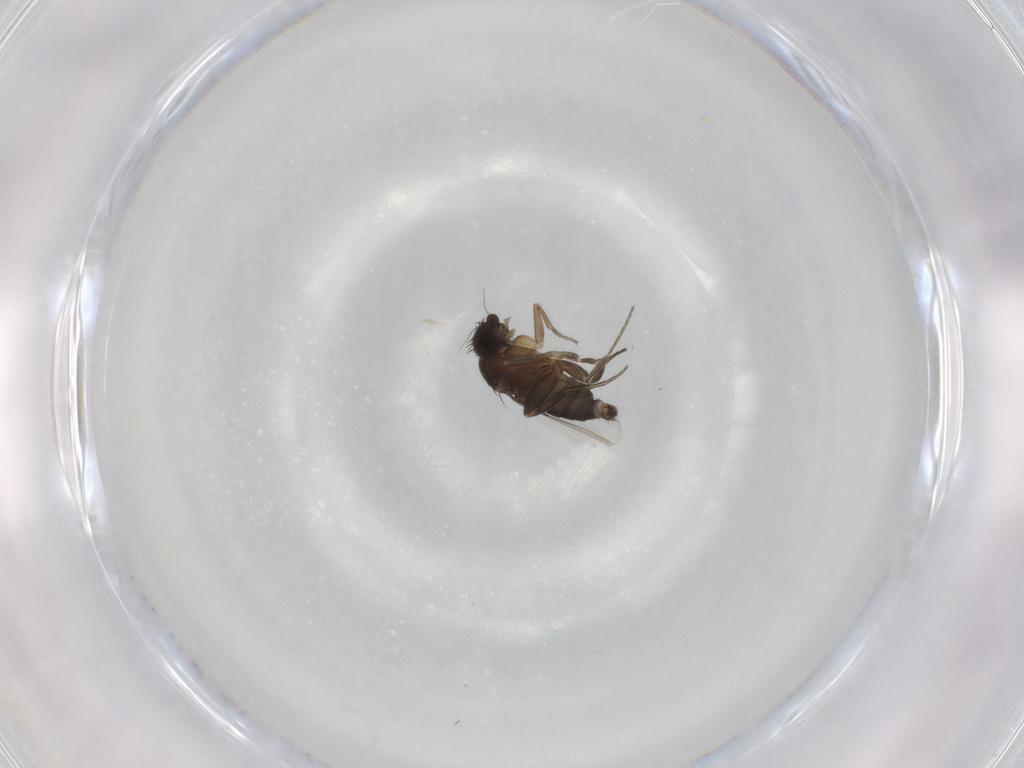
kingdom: Animalia
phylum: Arthropoda
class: Insecta
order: Diptera
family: Phoridae
